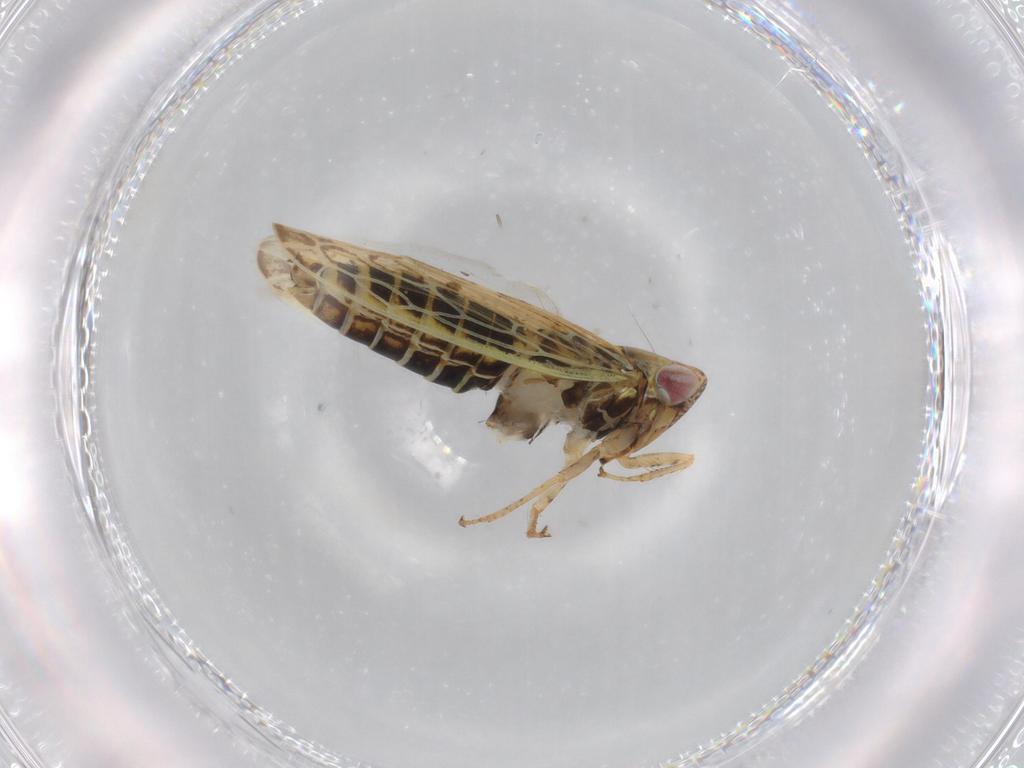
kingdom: Animalia
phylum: Arthropoda
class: Insecta
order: Hemiptera
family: Cicadellidae
